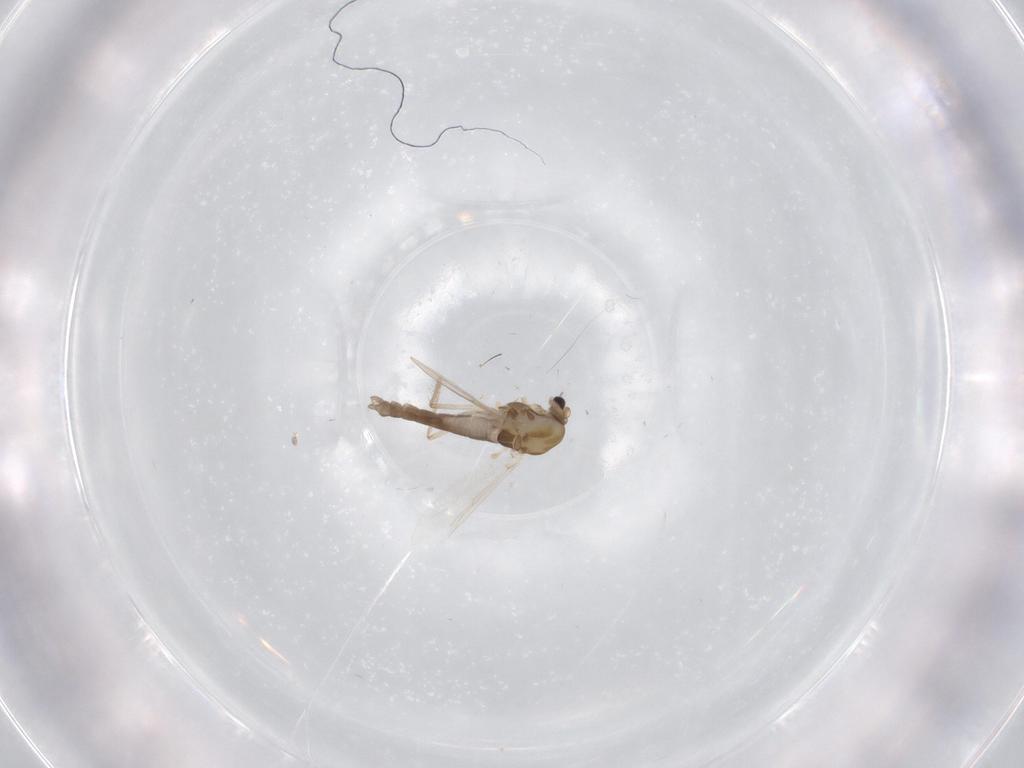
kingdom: Animalia
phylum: Arthropoda
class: Insecta
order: Diptera
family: Chironomidae
